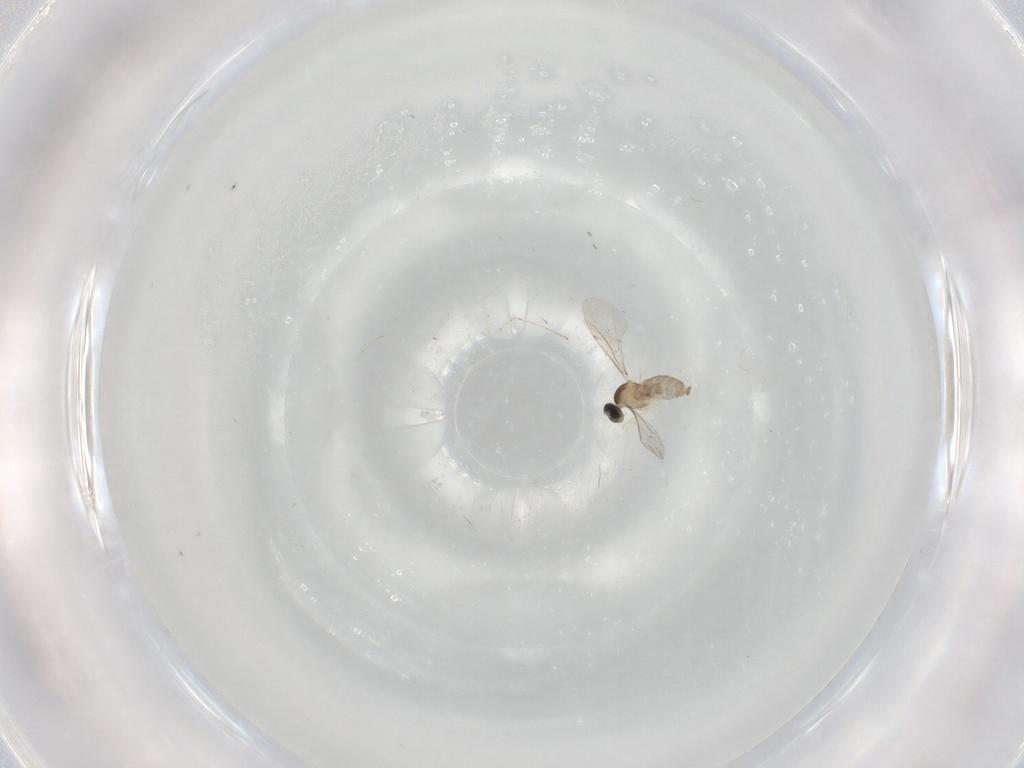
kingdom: Animalia
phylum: Arthropoda
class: Insecta
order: Diptera
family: Cecidomyiidae
